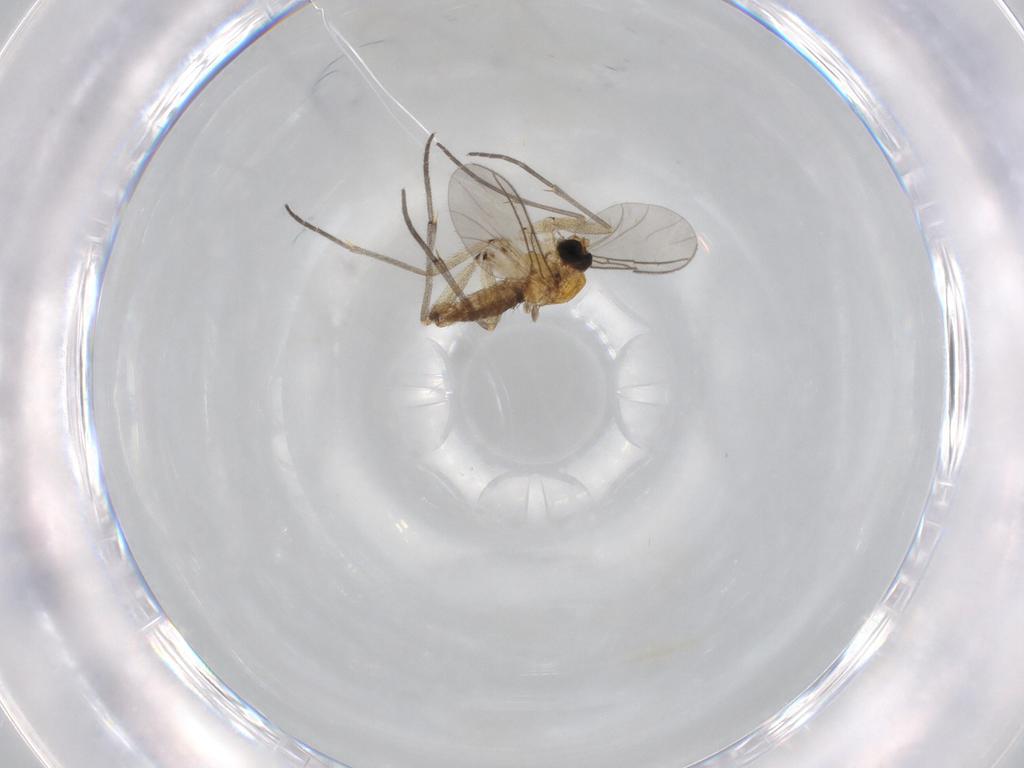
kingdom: Animalia
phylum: Arthropoda
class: Insecta
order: Diptera
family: Sciaridae
